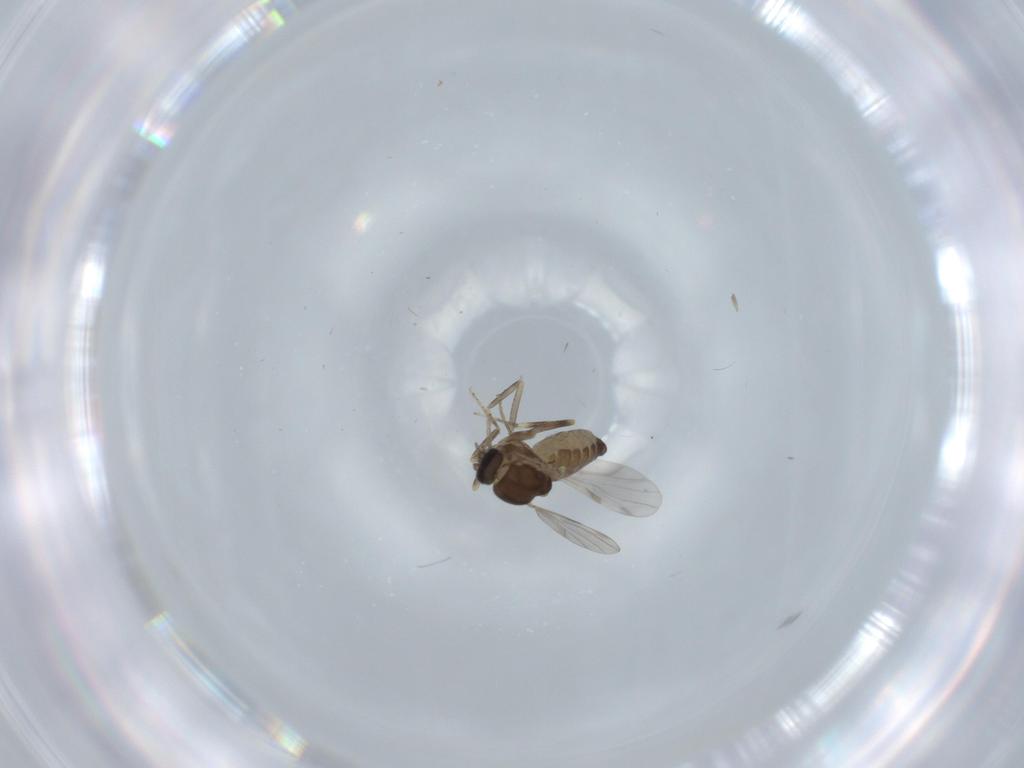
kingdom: Animalia
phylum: Arthropoda
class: Insecta
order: Diptera
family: Ceratopogonidae
